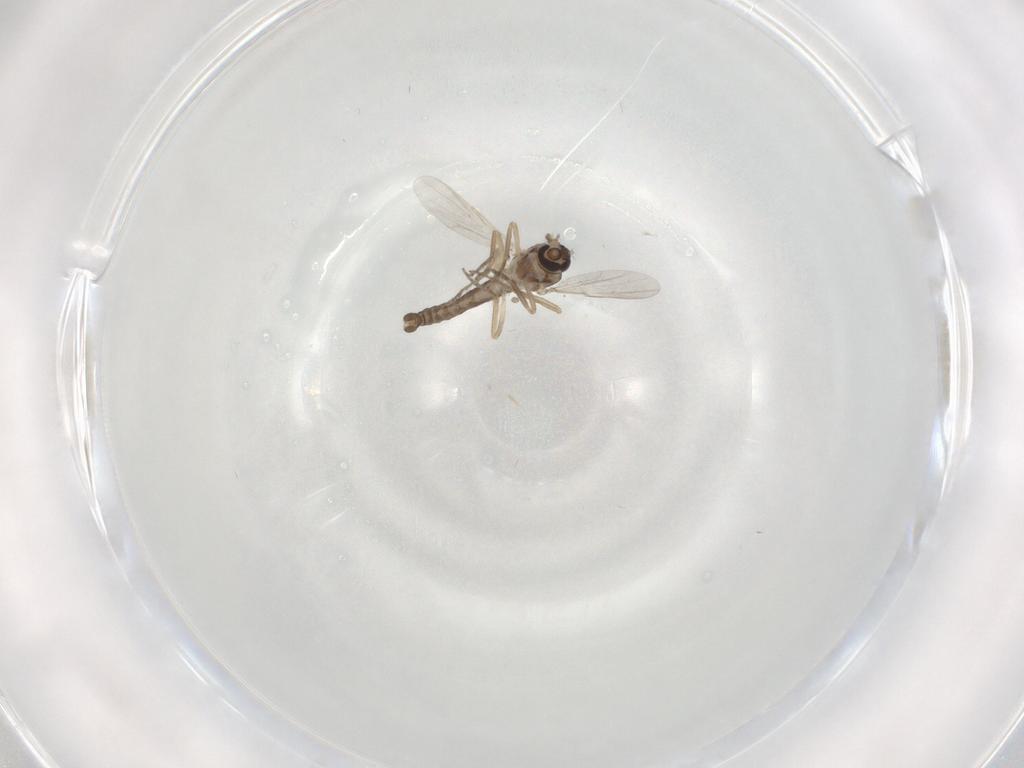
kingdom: Animalia
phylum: Arthropoda
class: Insecta
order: Diptera
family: Ceratopogonidae
